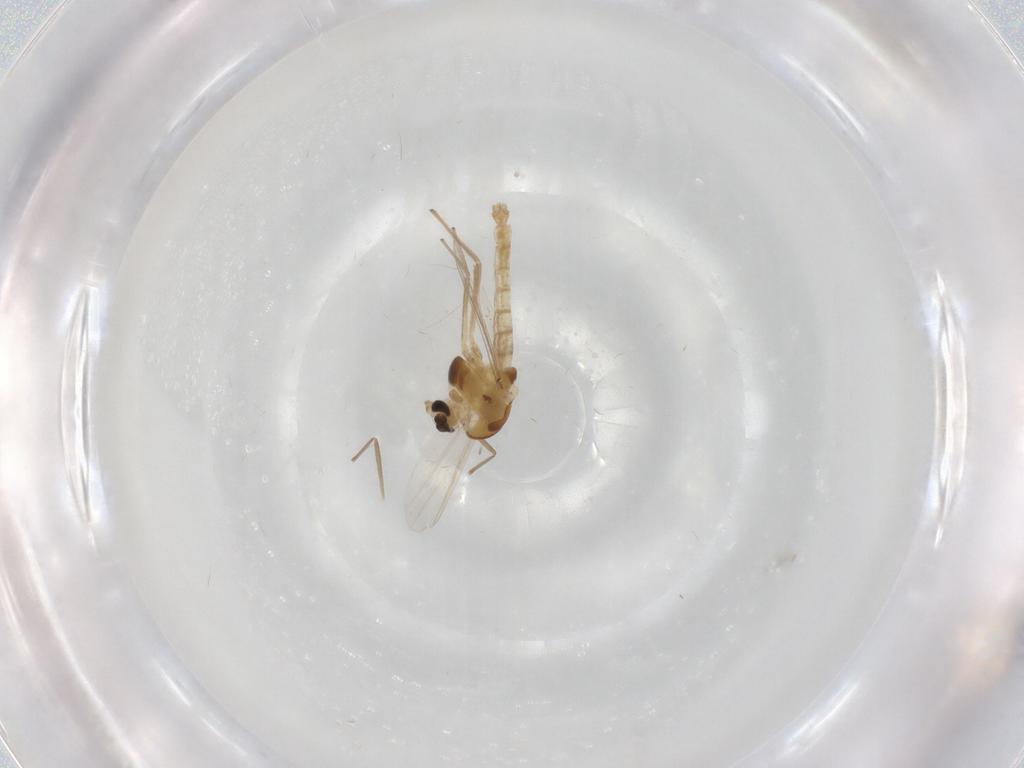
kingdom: Animalia
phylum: Arthropoda
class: Insecta
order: Diptera
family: Chironomidae
